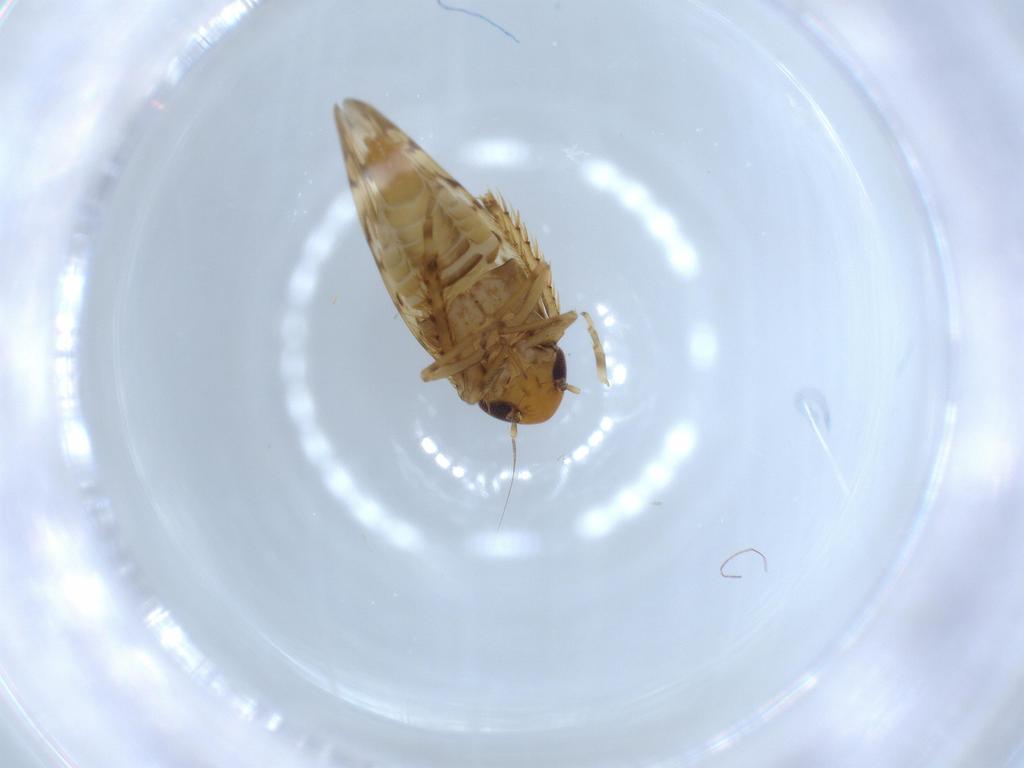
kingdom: Animalia
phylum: Arthropoda
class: Insecta
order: Hemiptera
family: Cicadellidae
